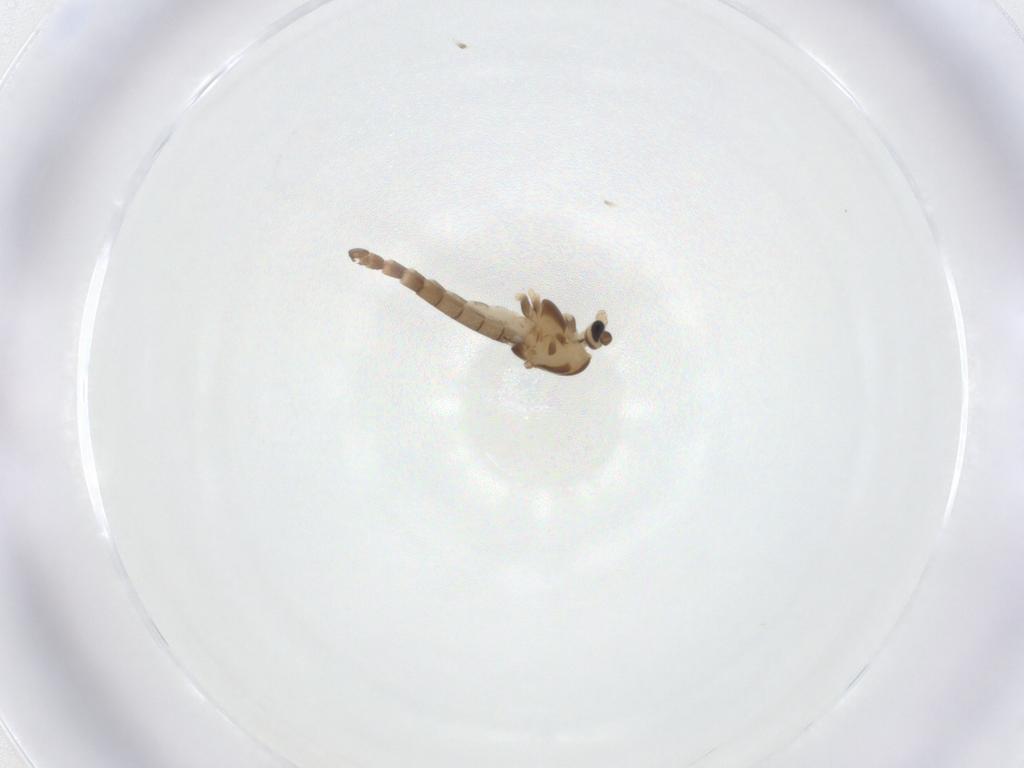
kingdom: Animalia
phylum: Arthropoda
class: Insecta
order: Diptera
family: Chironomidae
